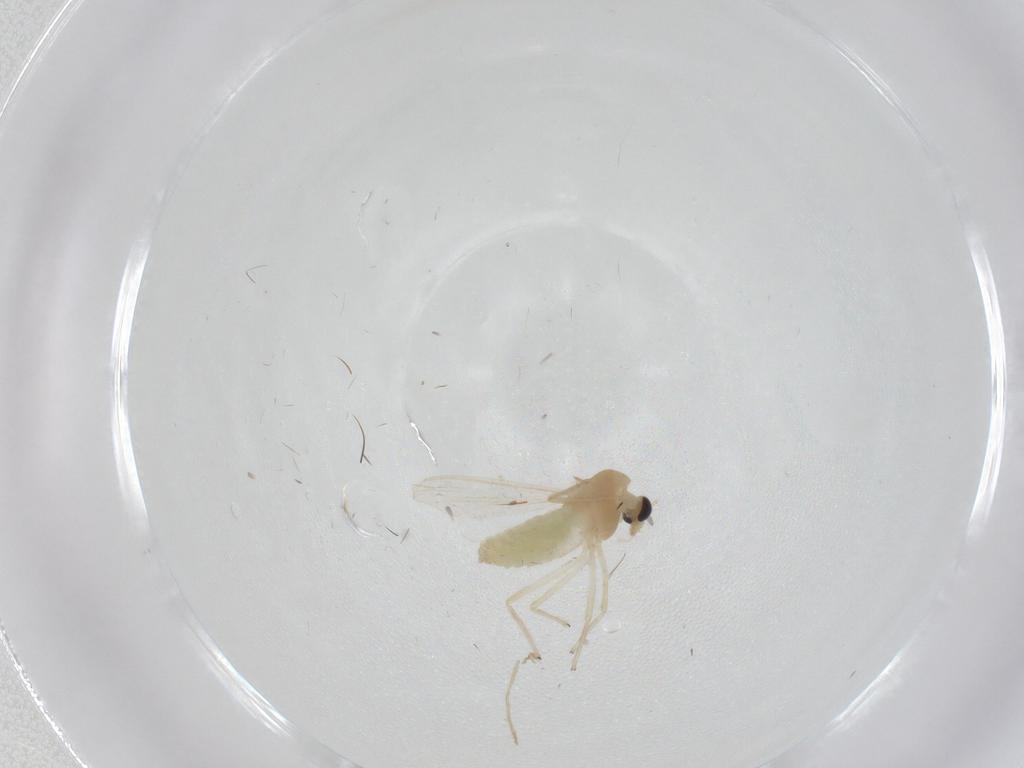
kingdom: Animalia
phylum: Arthropoda
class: Insecta
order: Diptera
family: Chironomidae
